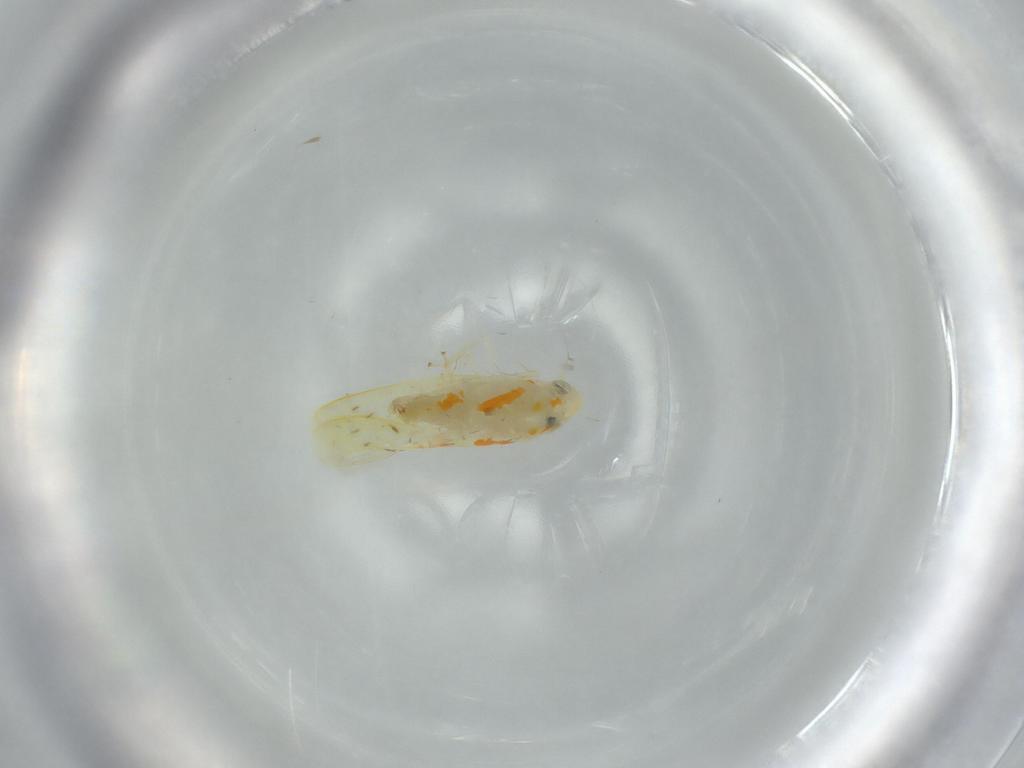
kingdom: Animalia
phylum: Arthropoda
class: Insecta
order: Hemiptera
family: Cicadellidae
